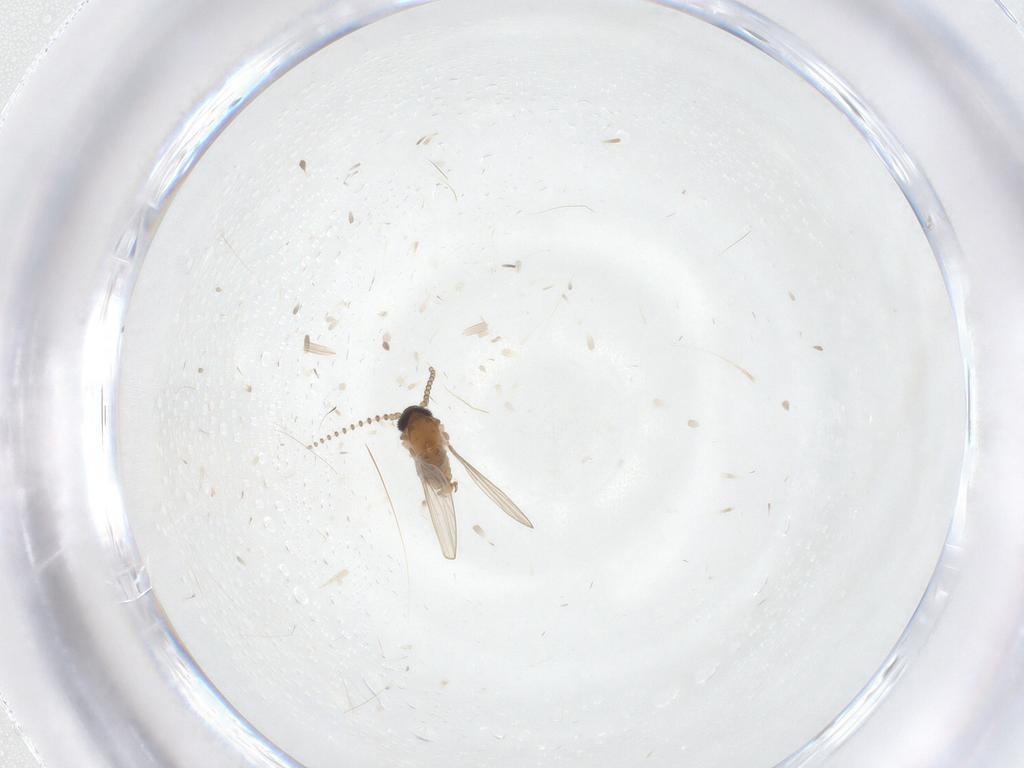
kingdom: Animalia
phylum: Arthropoda
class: Insecta
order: Diptera
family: Psychodidae
